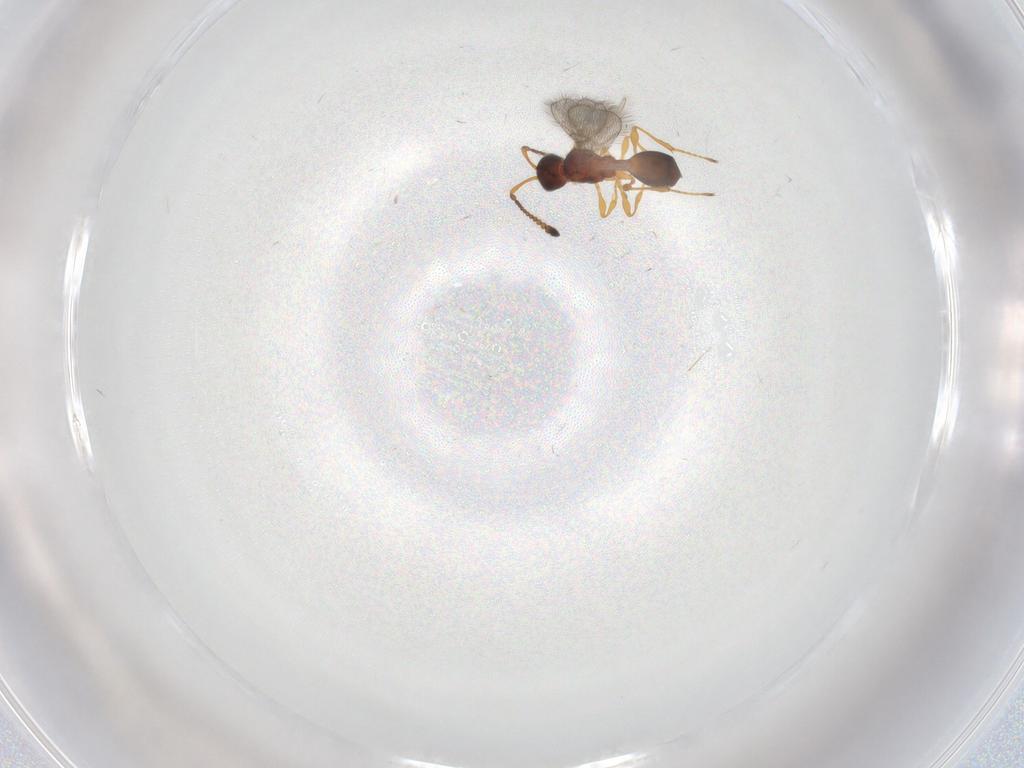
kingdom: Animalia
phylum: Arthropoda
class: Insecta
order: Hymenoptera
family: Diapriidae
